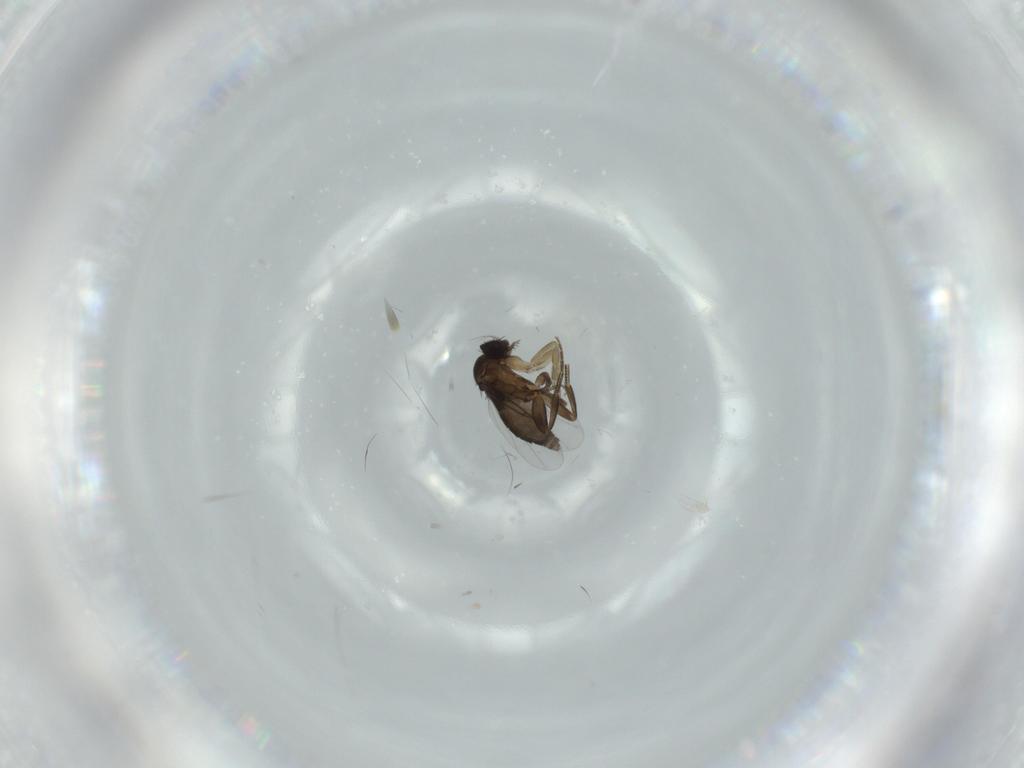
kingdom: Animalia
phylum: Arthropoda
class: Insecta
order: Diptera
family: Phoridae
